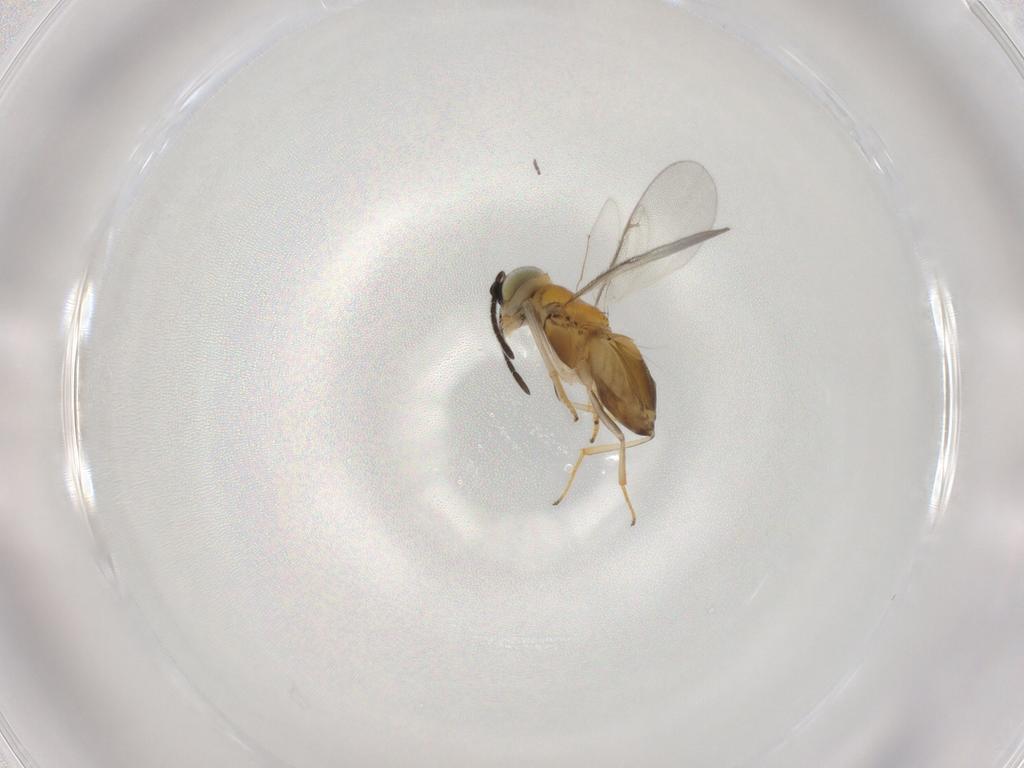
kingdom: Animalia
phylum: Arthropoda
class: Insecta
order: Hymenoptera
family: Encyrtidae
